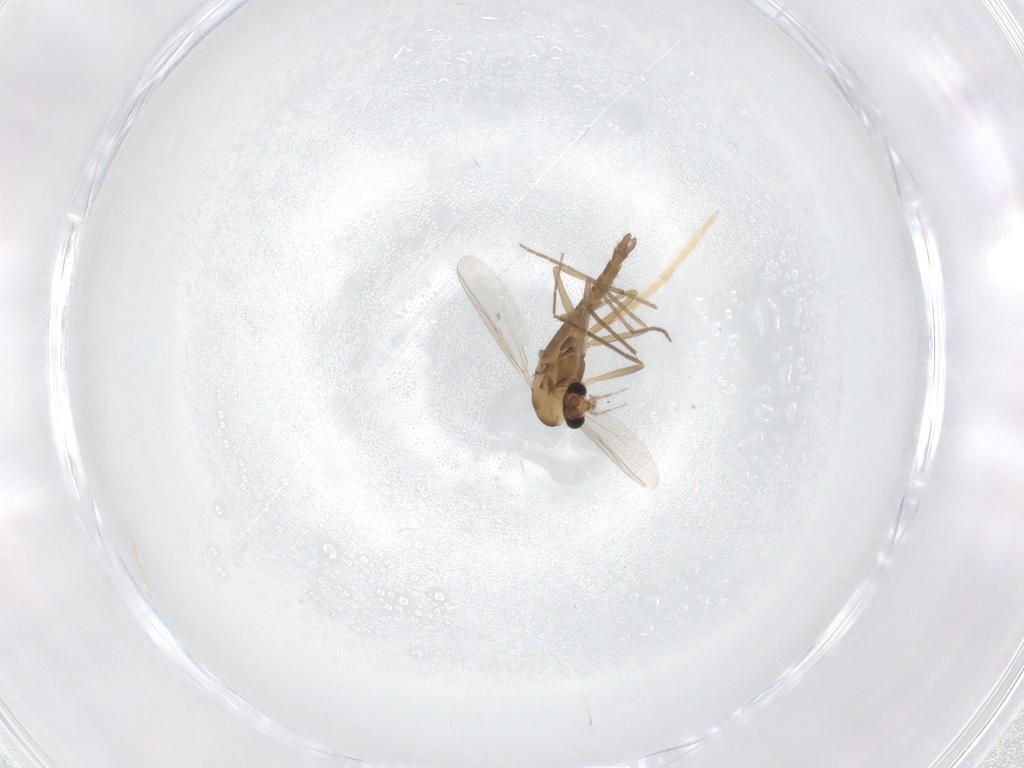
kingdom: Animalia
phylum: Arthropoda
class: Insecta
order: Diptera
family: Chironomidae
